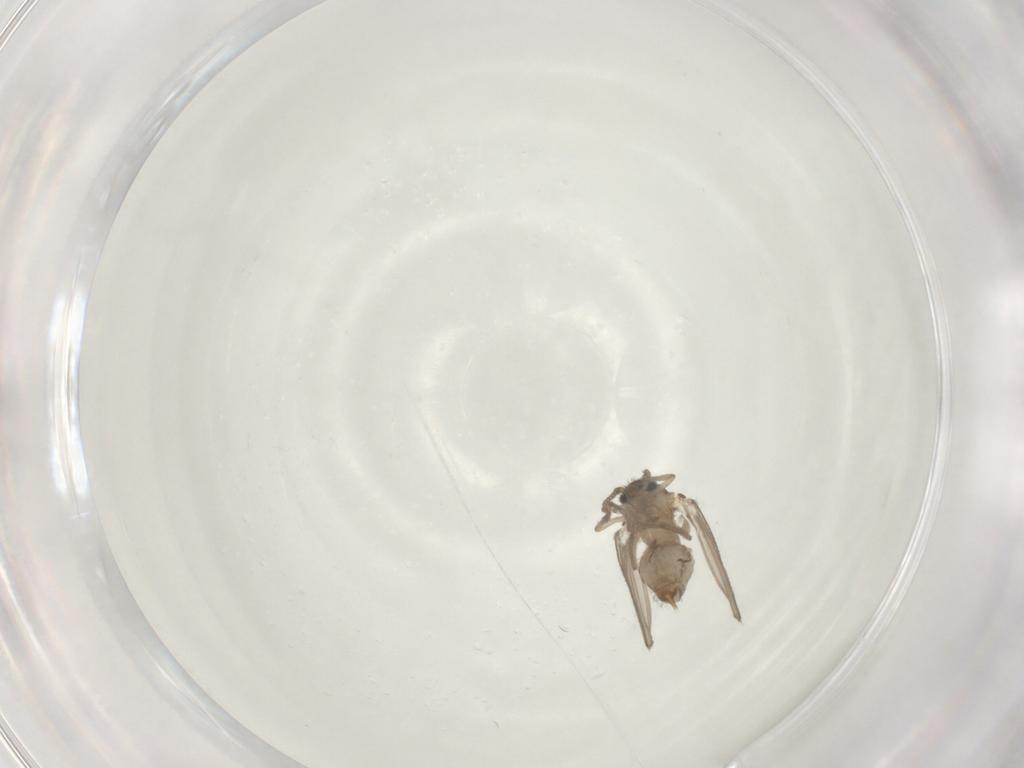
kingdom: Animalia
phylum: Arthropoda
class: Insecta
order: Diptera
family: Psychodidae
